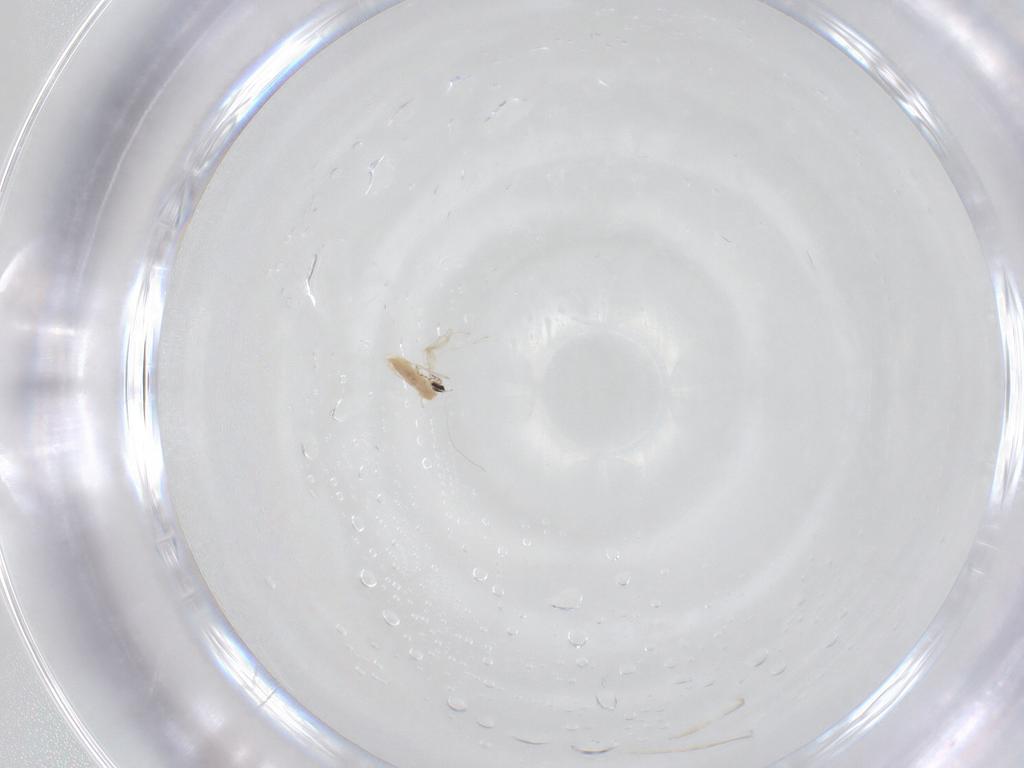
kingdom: Animalia
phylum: Arthropoda
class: Insecta
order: Diptera
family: Cecidomyiidae
